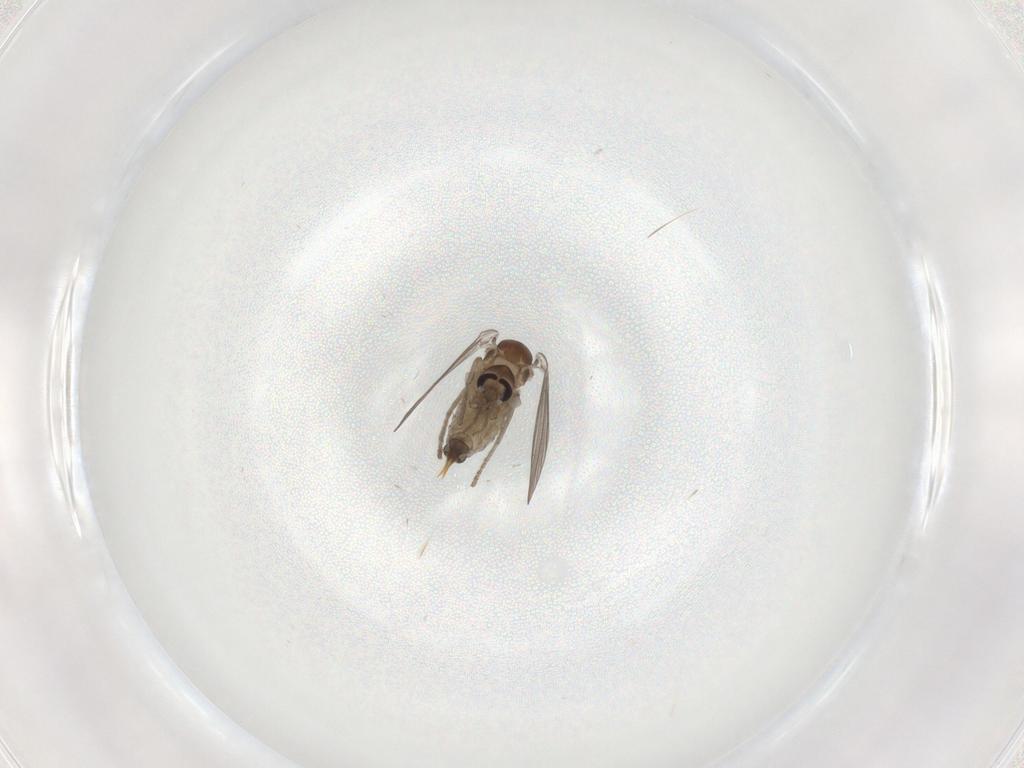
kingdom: Animalia
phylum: Arthropoda
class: Insecta
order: Diptera
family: Psychodidae
